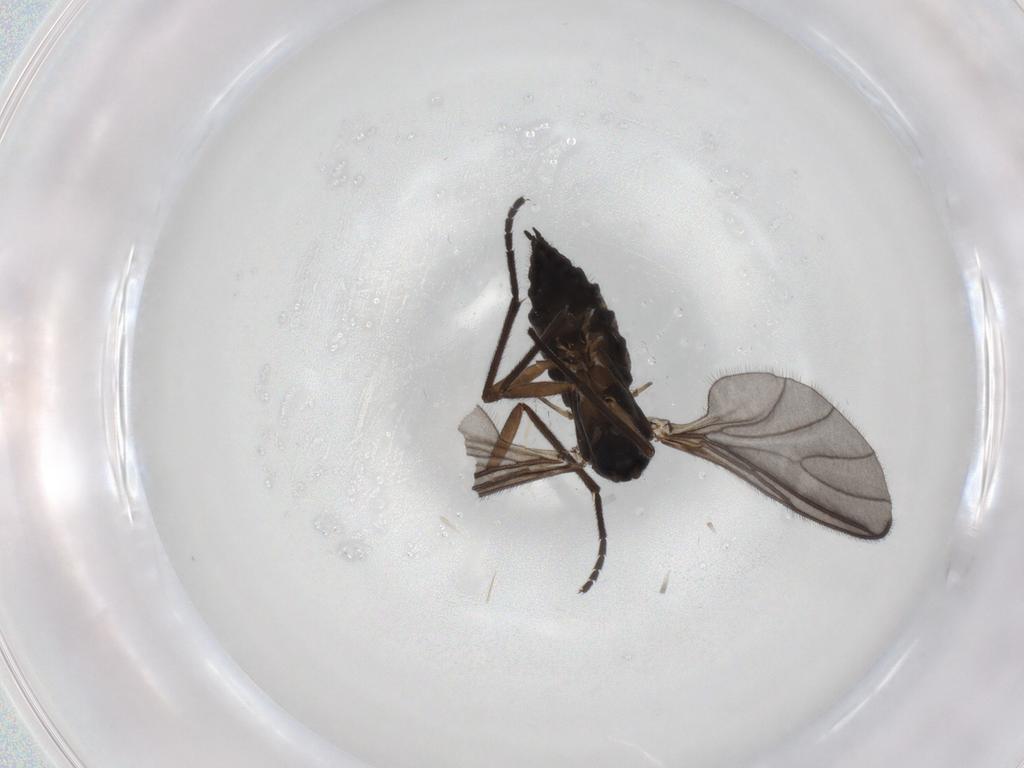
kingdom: Animalia
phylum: Arthropoda
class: Insecta
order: Diptera
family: Sciaridae
